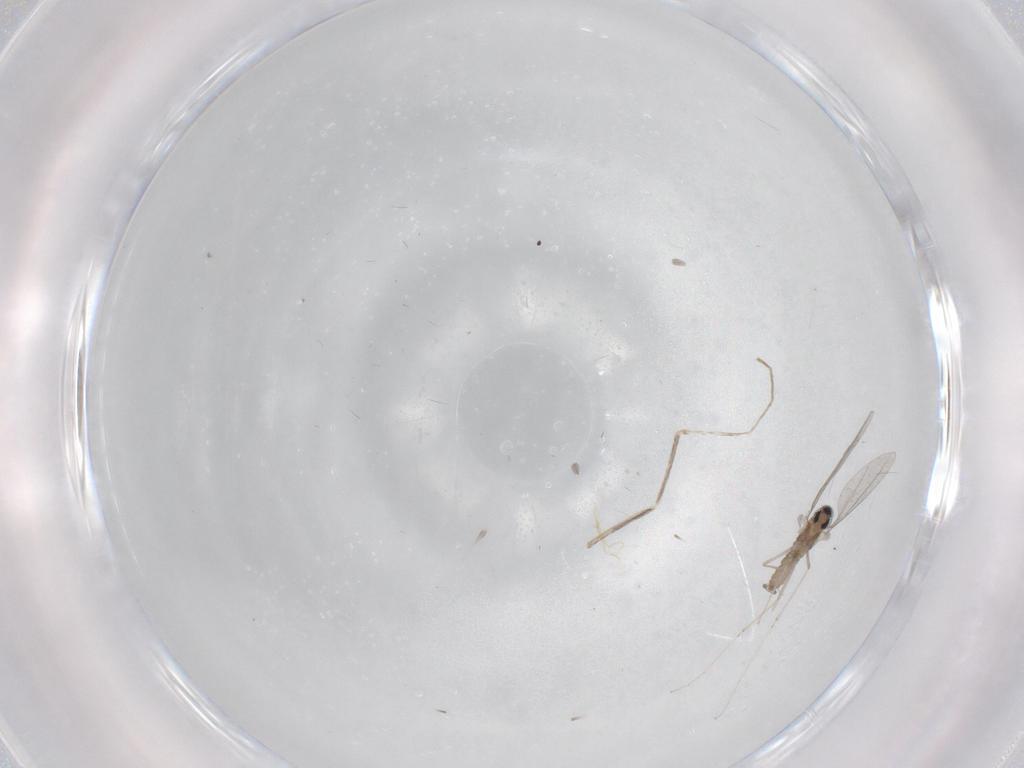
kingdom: Animalia
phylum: Arthropoda
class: Insecta
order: Diptera
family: Cecidomyiidae
